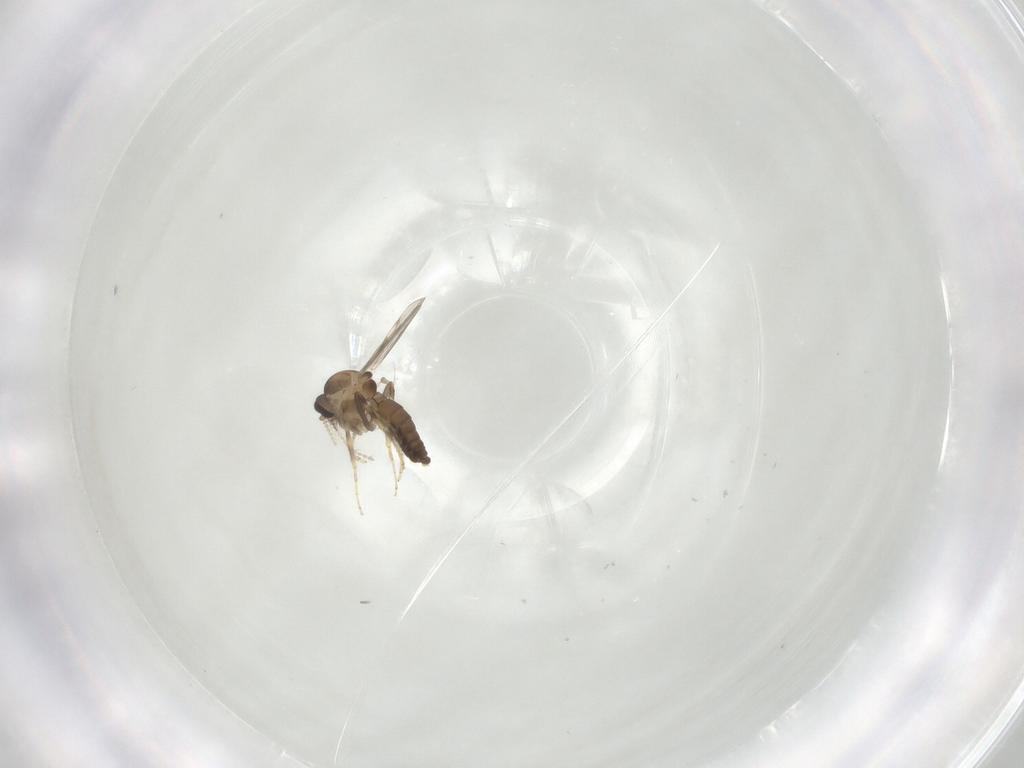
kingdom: Animalia
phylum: Arthropoda
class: Insecta
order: Diptera
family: Ceratopogonidae
